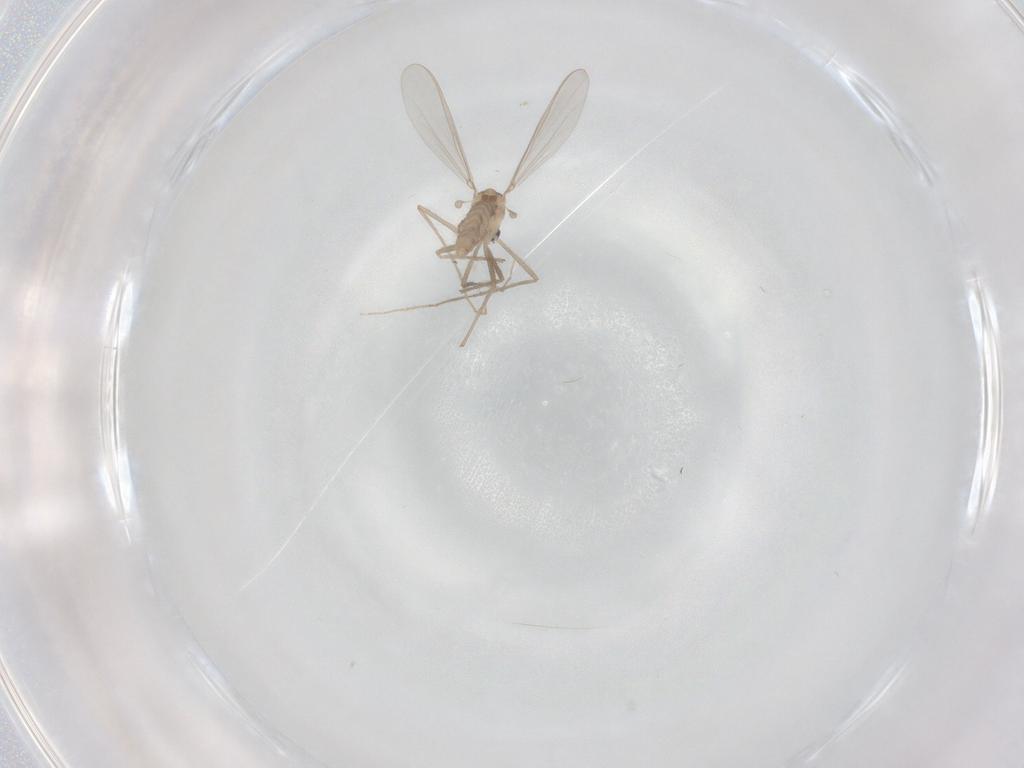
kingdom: Animalia
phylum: Arthropoda
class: Insecta
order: Diptera
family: Chironomidae
